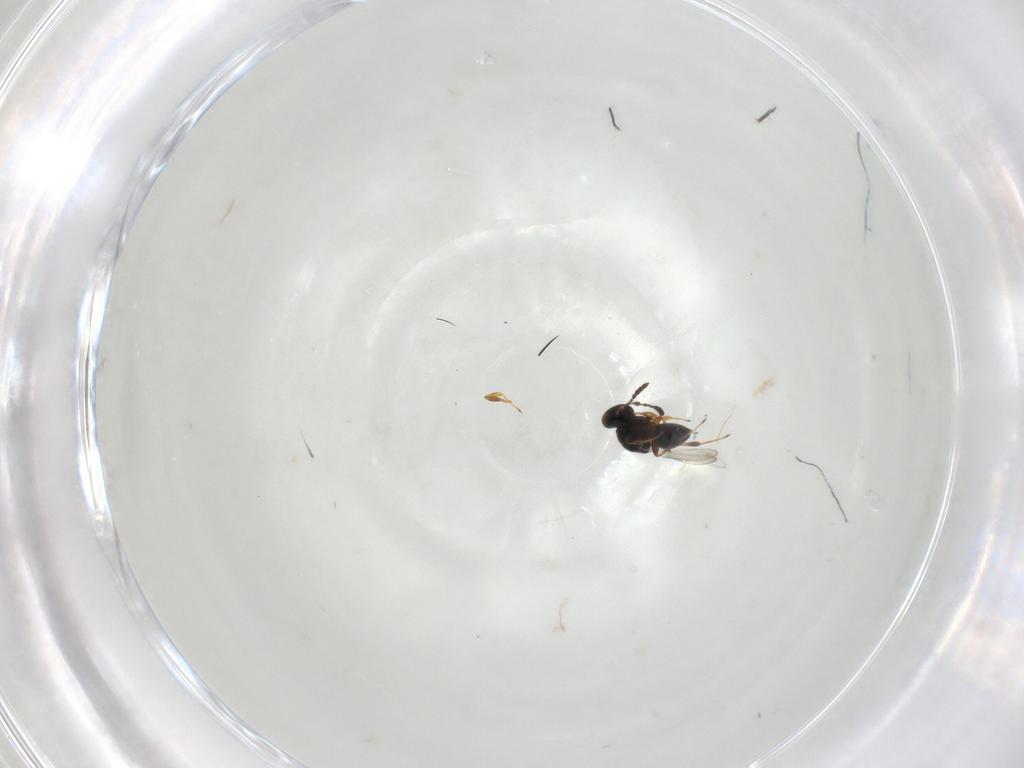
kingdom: Animalia
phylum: Arthropoda
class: Insecta
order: Hymenoptera
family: Platygastridae
